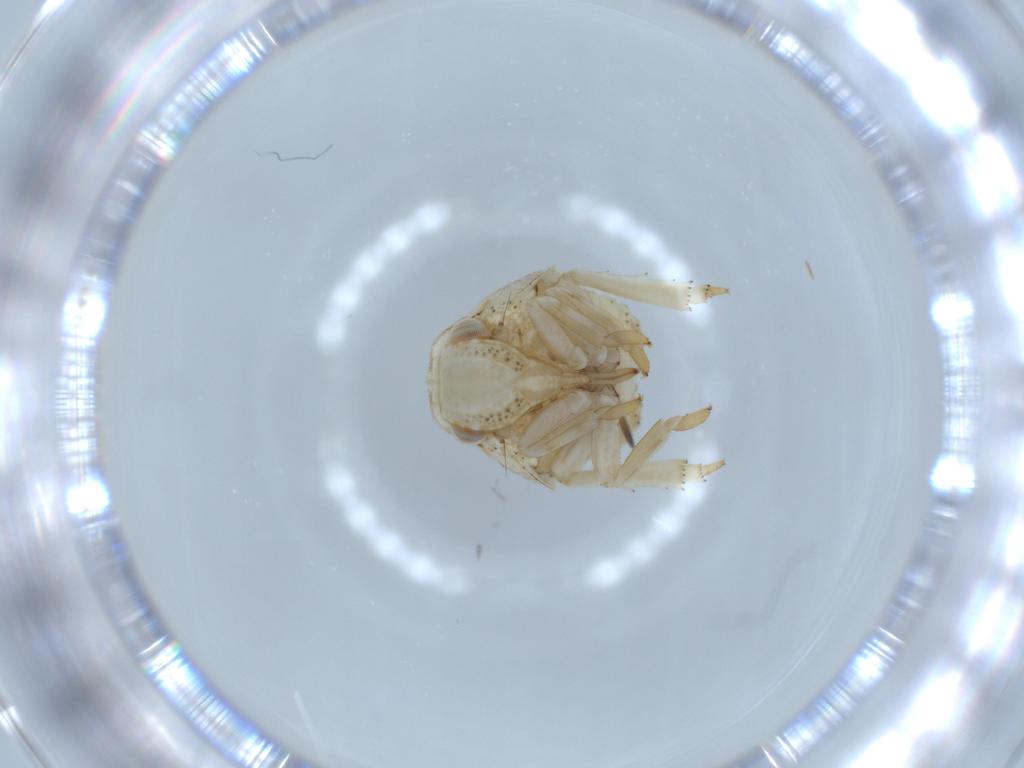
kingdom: Animalia
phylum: Arthropoda
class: Insecta
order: Hemiptera
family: Acanaloniidae
